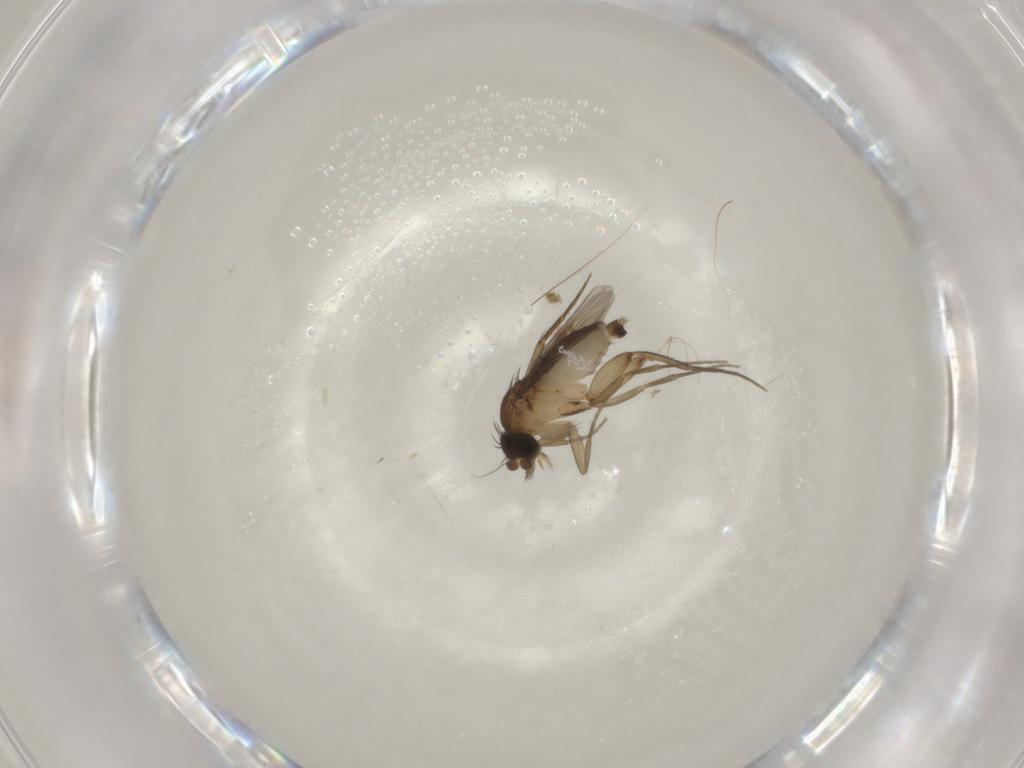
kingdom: Animalia
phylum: Arthropoda
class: Insecta
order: Diptera
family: Phoridae
